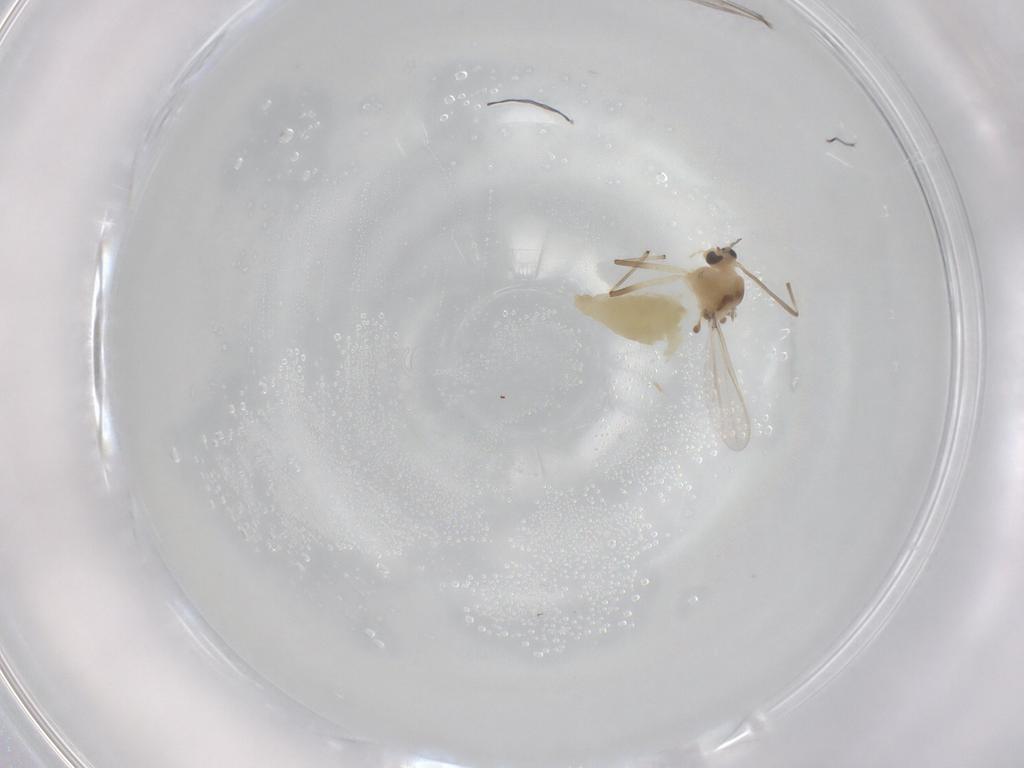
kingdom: Animalia
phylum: Arthropoda
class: Insecta
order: Diptera
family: Chironomidae
